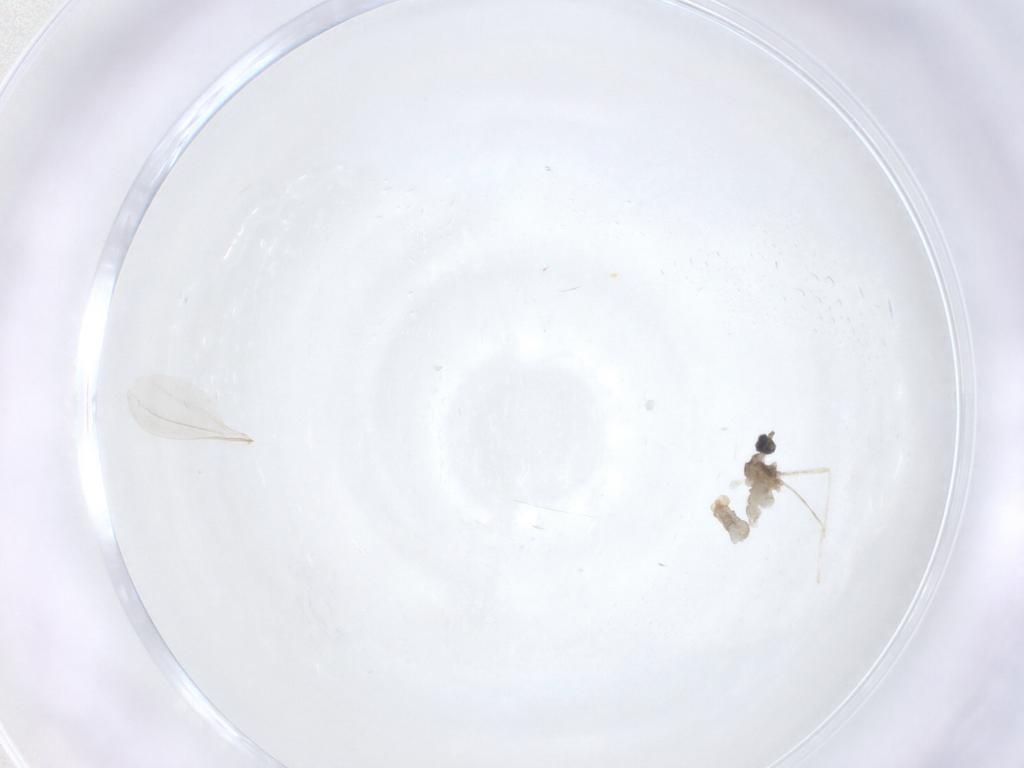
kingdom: Animalia
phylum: Arthropoda
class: Insecta
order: Diptera
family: Cecidomyiidae
